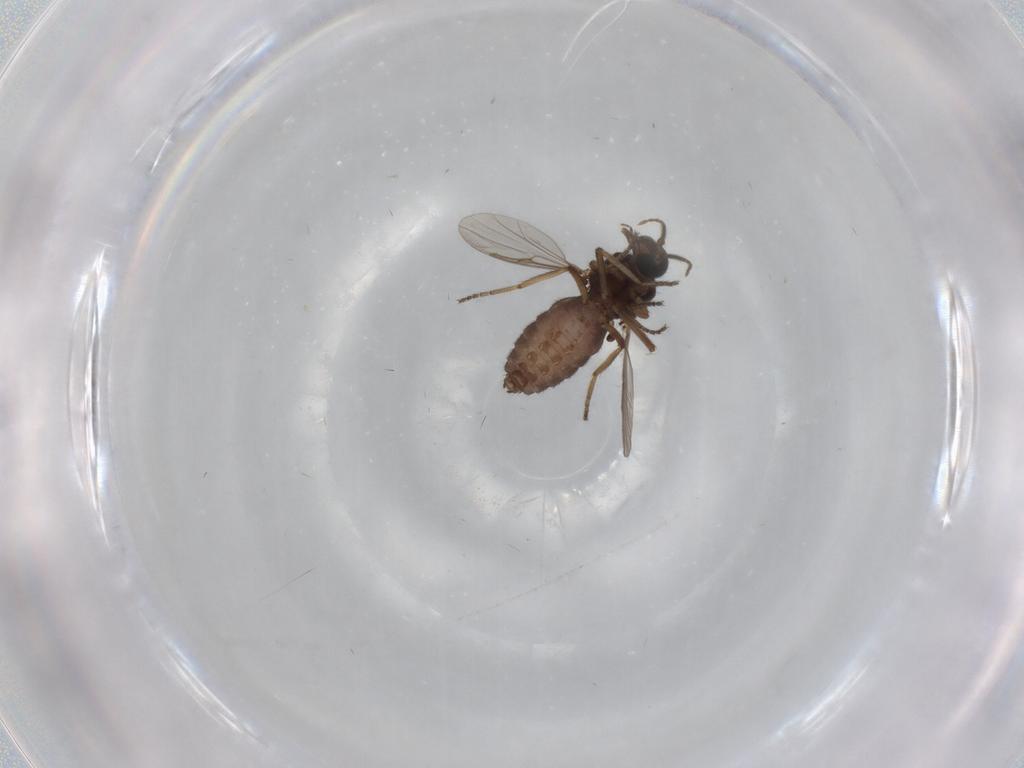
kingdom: Animalia
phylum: Arthropoda
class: Insecta
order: Diptera
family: Ceratopogonidae
